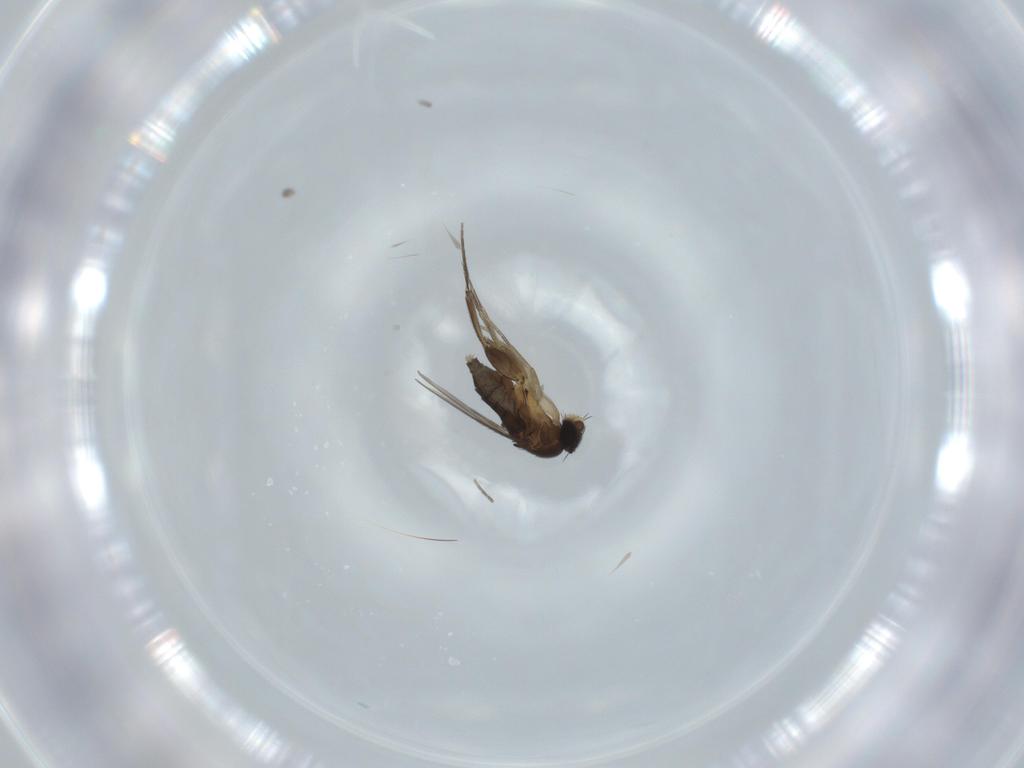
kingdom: Animalia
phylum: Arthropoda
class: Insecta
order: Diptera
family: Phoridae
